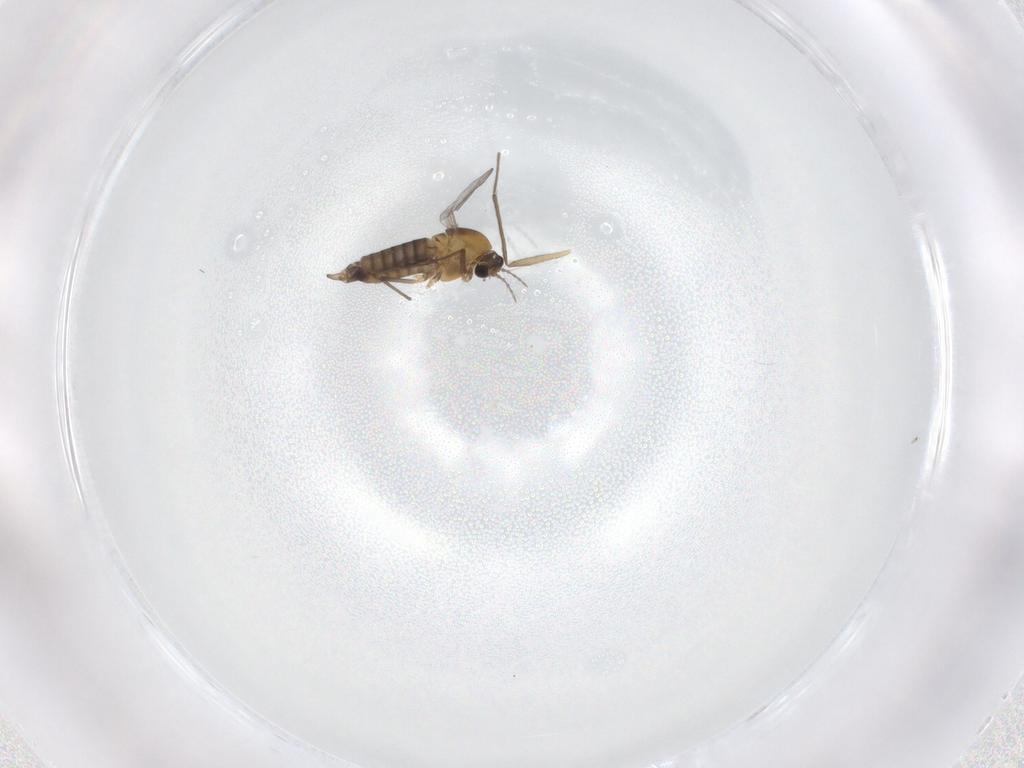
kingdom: Animalia
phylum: Arthropoda
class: Insecta
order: Diptera
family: Chironomidae
